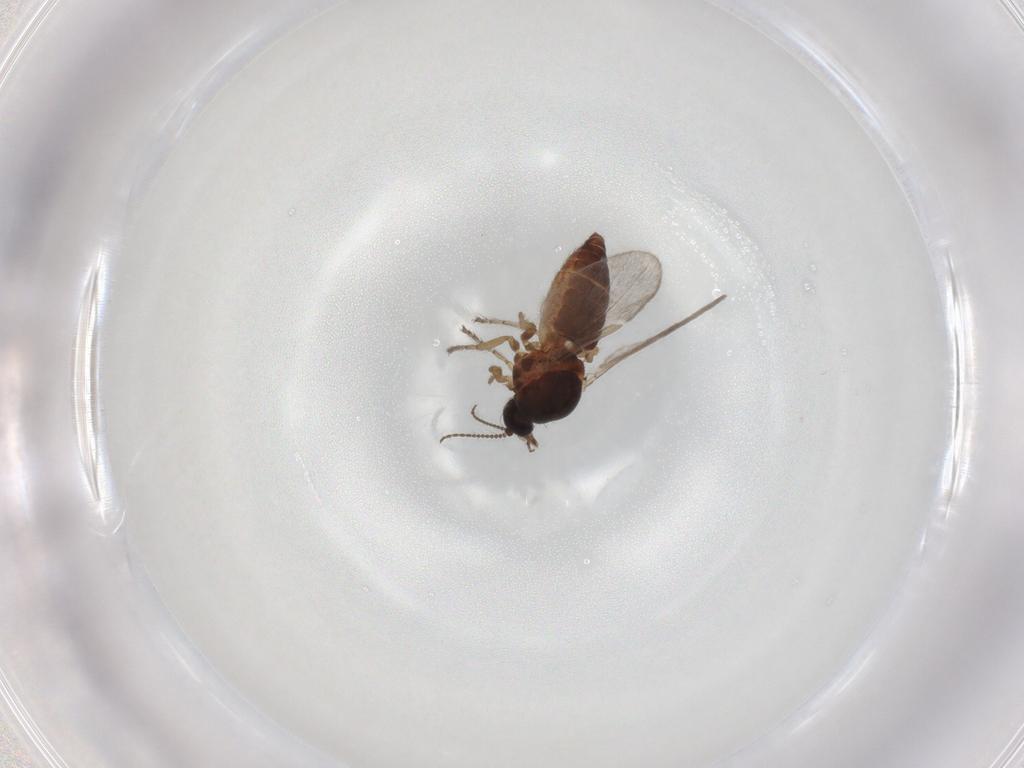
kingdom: Animalia
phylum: Arthropoda
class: Insecta
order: Diptera
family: Ceratopogonidae
